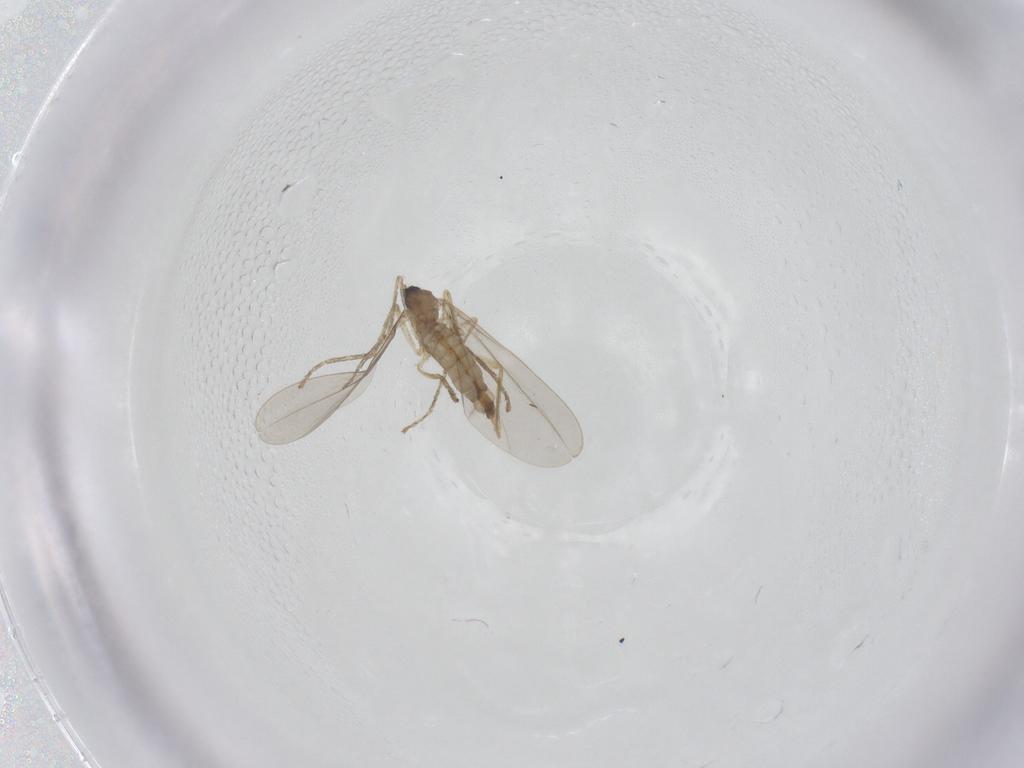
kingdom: Animalia
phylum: Arthropoda
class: Insecta
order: Diptera
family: Cecidomyiidae
